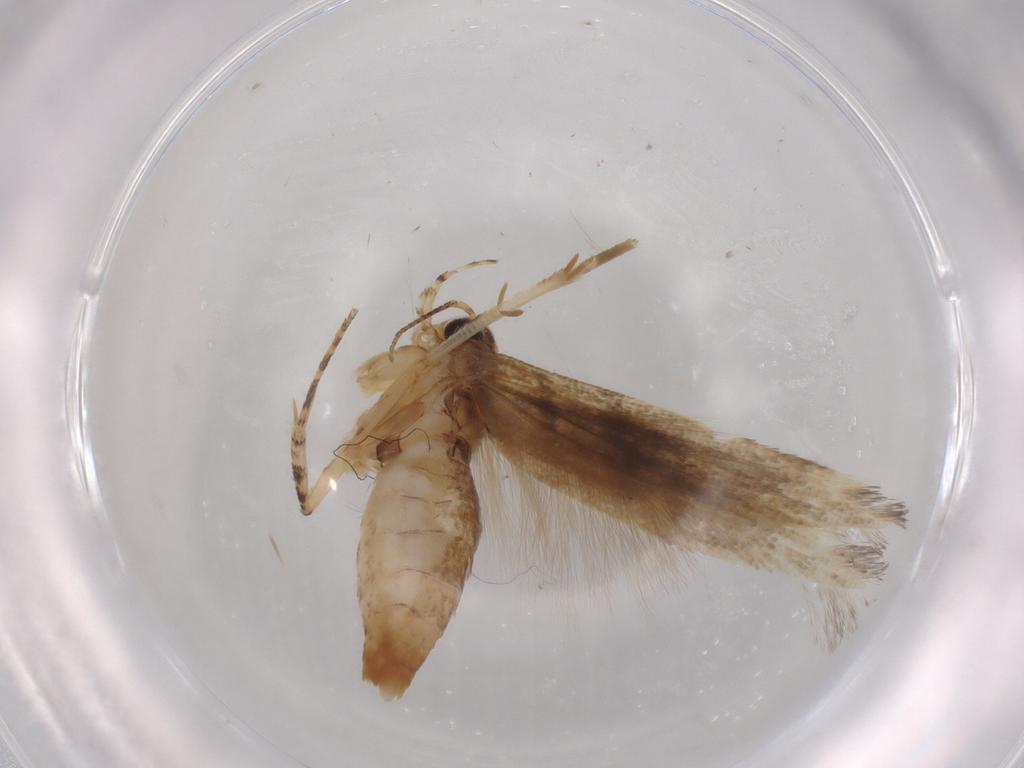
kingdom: Animalia
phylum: Arthropoda
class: Insecta
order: Lepidoptera
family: Gelechiidae
